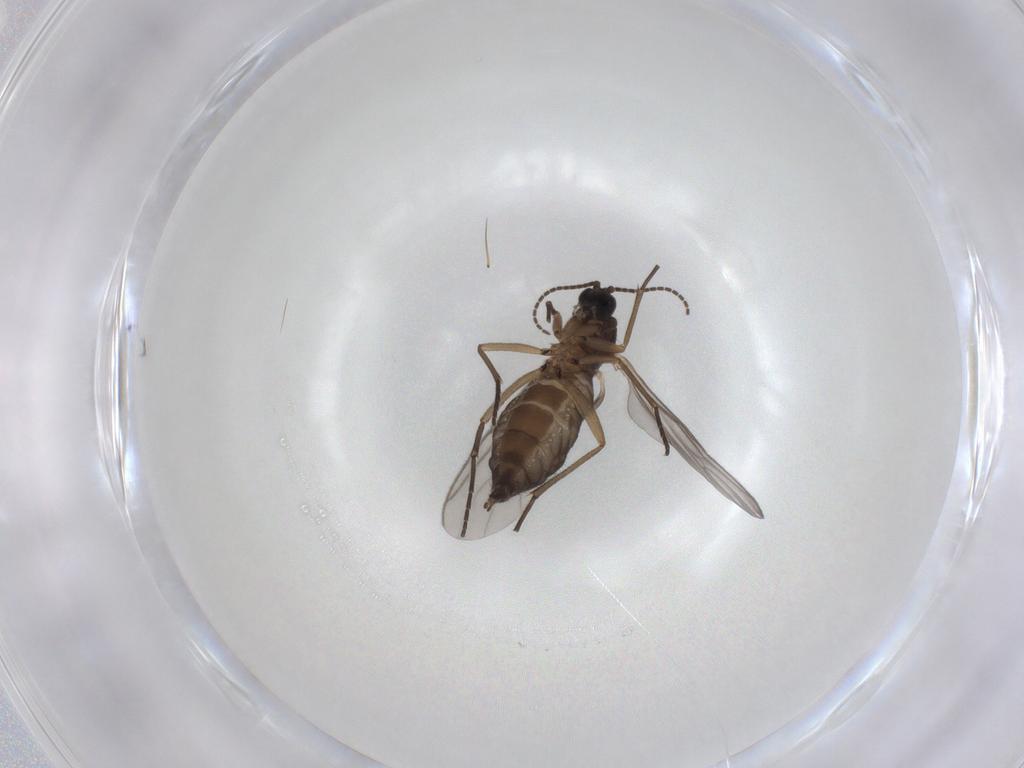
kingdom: Animalia
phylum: Arthropoda
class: Insecta
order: Diptera
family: Sciaridae
